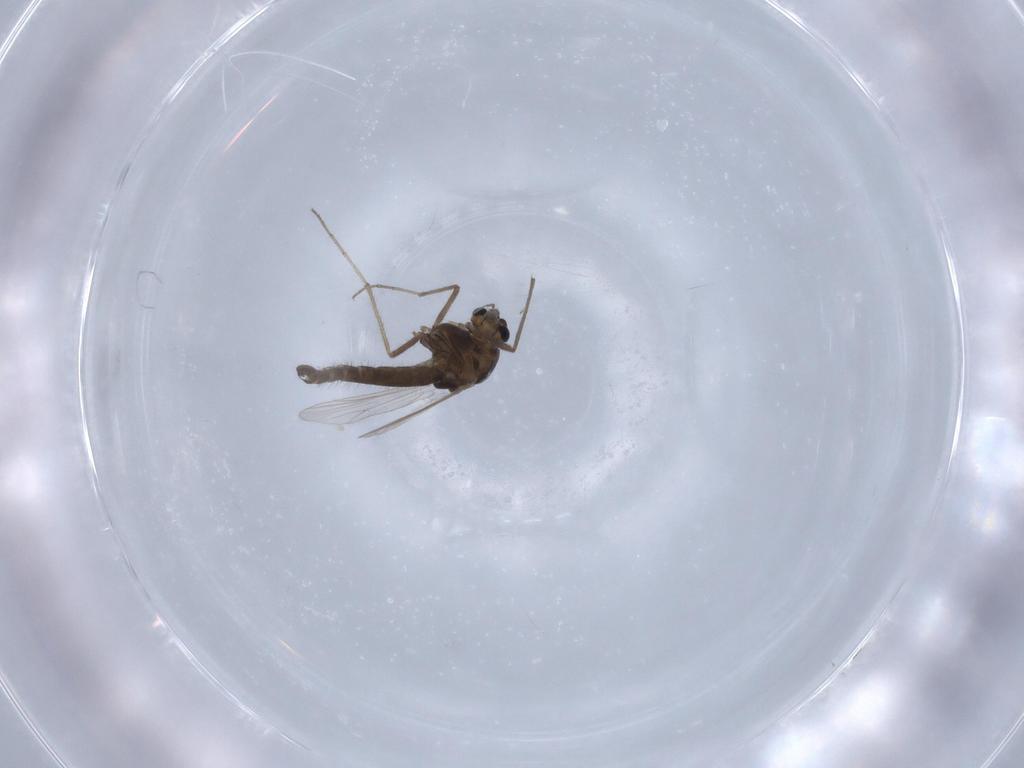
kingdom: Animalia
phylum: Arthropoda
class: Insecta
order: Diptera
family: Chironomidae
